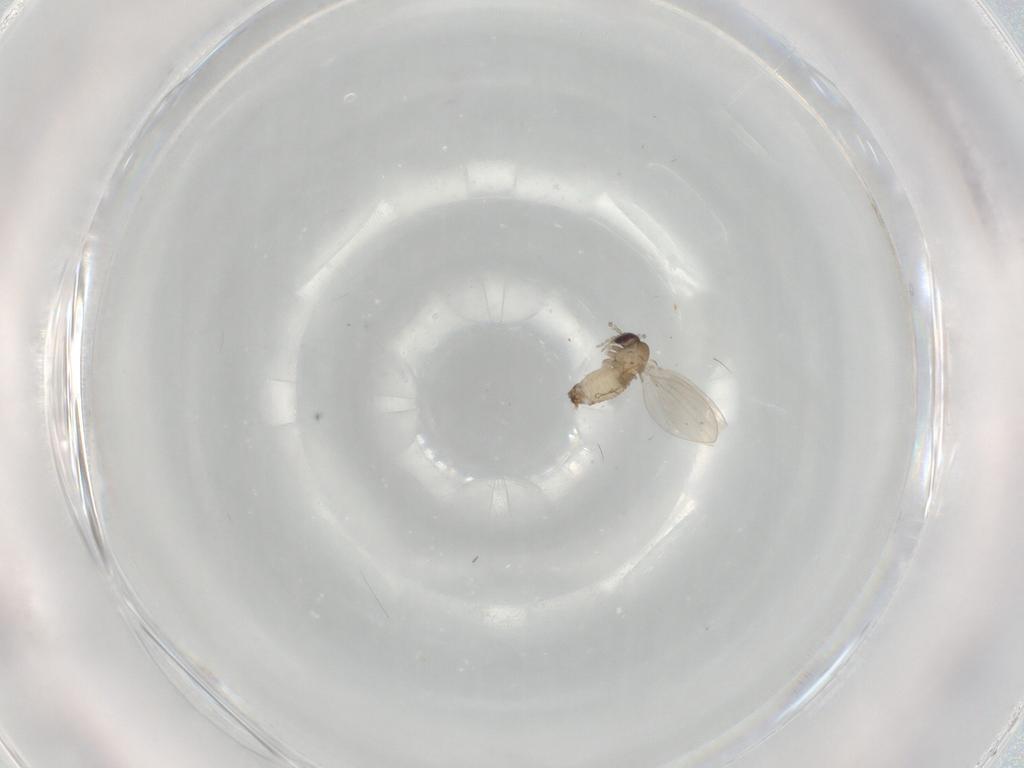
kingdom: Animalia
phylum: Arthropoda
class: Insecta
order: Diptera
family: Psychodidae
